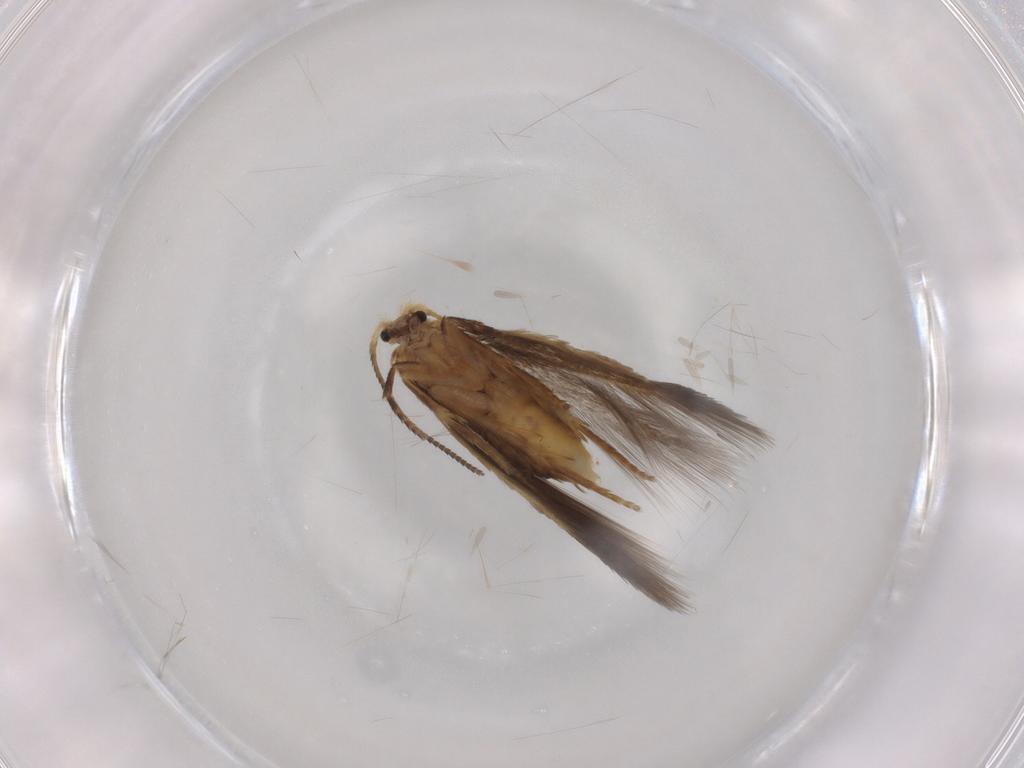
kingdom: Animalia
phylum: Arthropoda
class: Insecta
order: Lepidoptera
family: Nepticulidae
